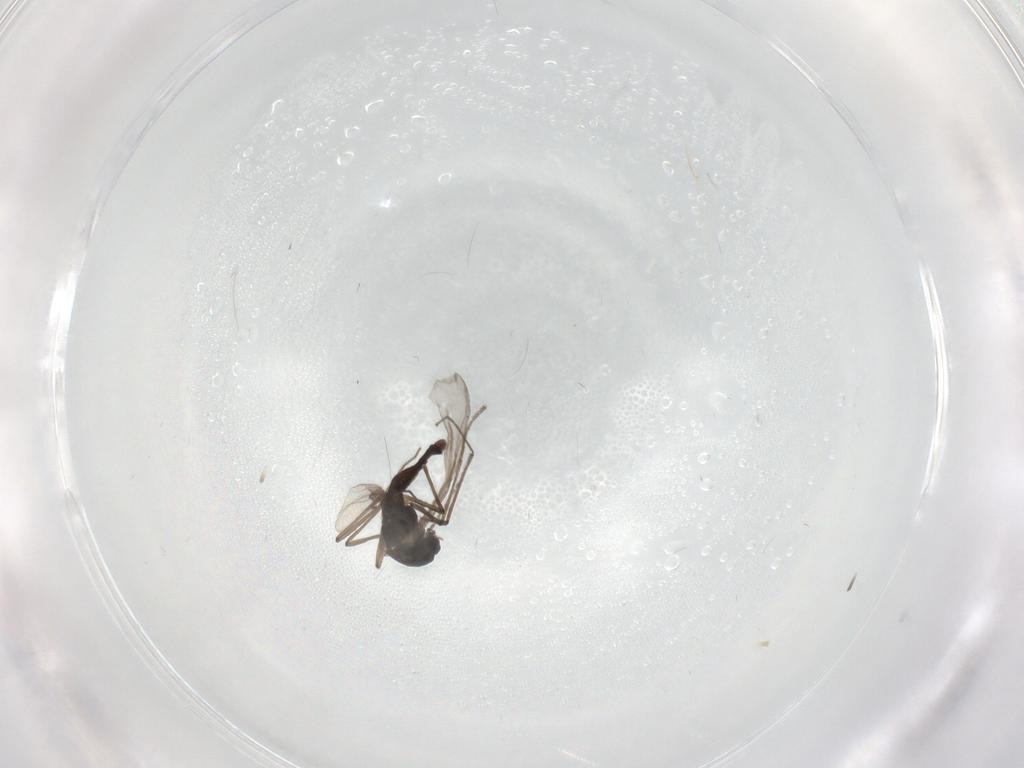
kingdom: Animalia
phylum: Arthropoda
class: Insecta
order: Diptera
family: Chironomidae
